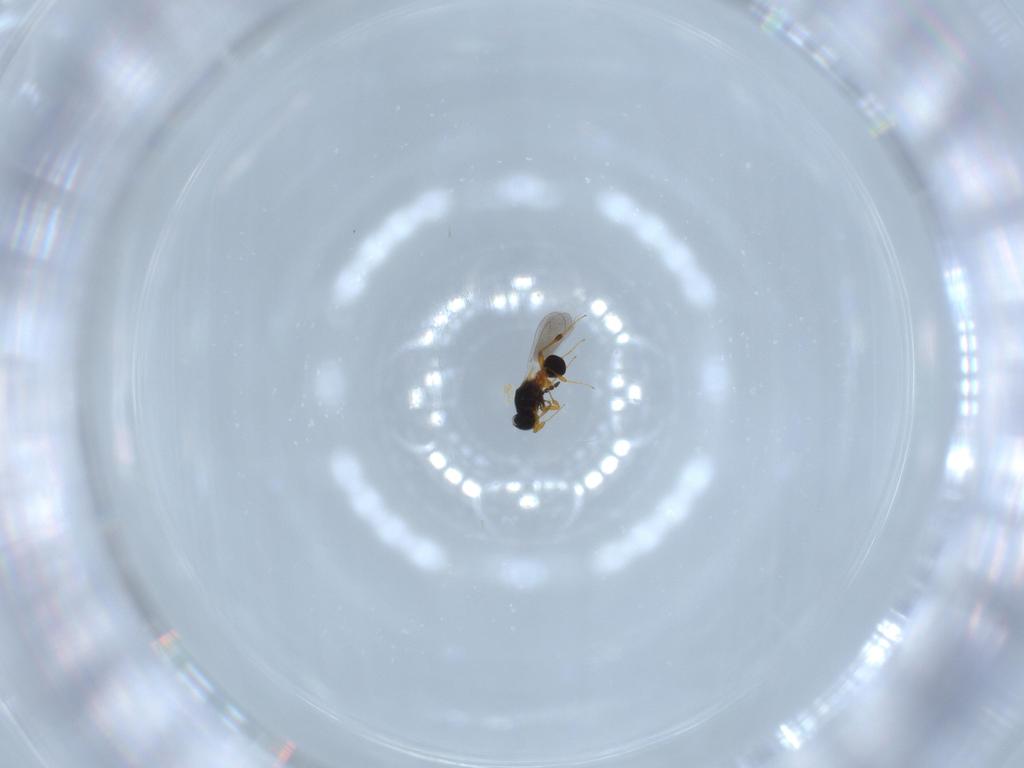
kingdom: Animalia
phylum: Arthropoda
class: Insecta
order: Hymenoptera
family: Platygastridae
